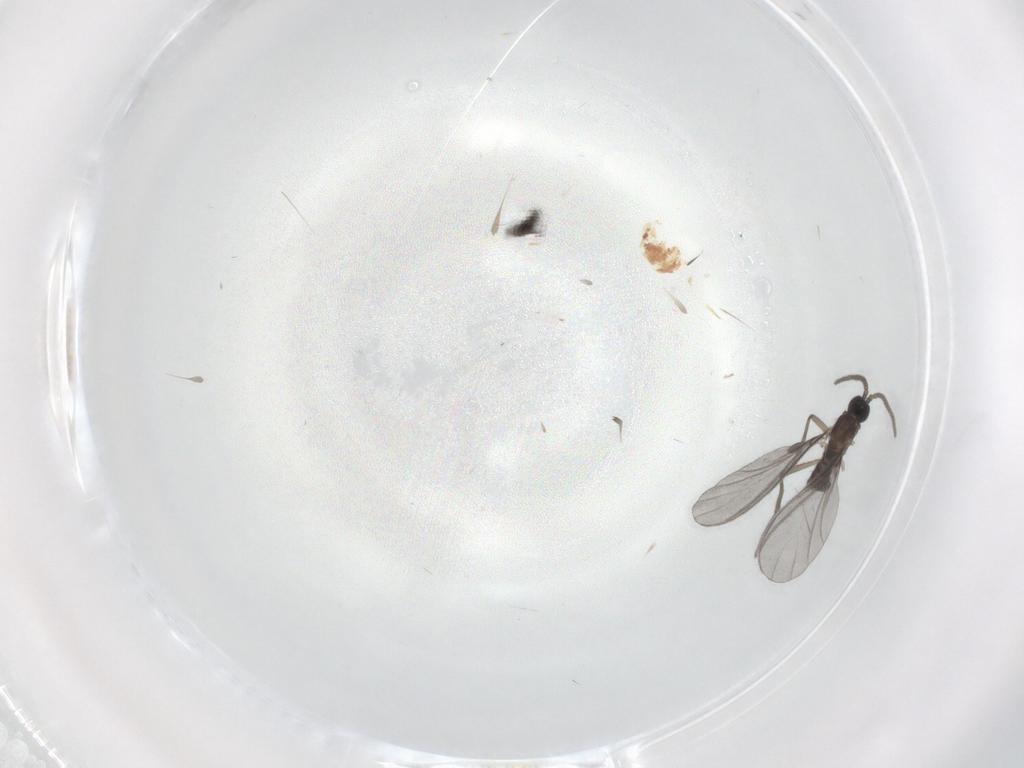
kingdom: Animalia
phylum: Arthropoda
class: Insecta
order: Diptera
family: Sciaridae
